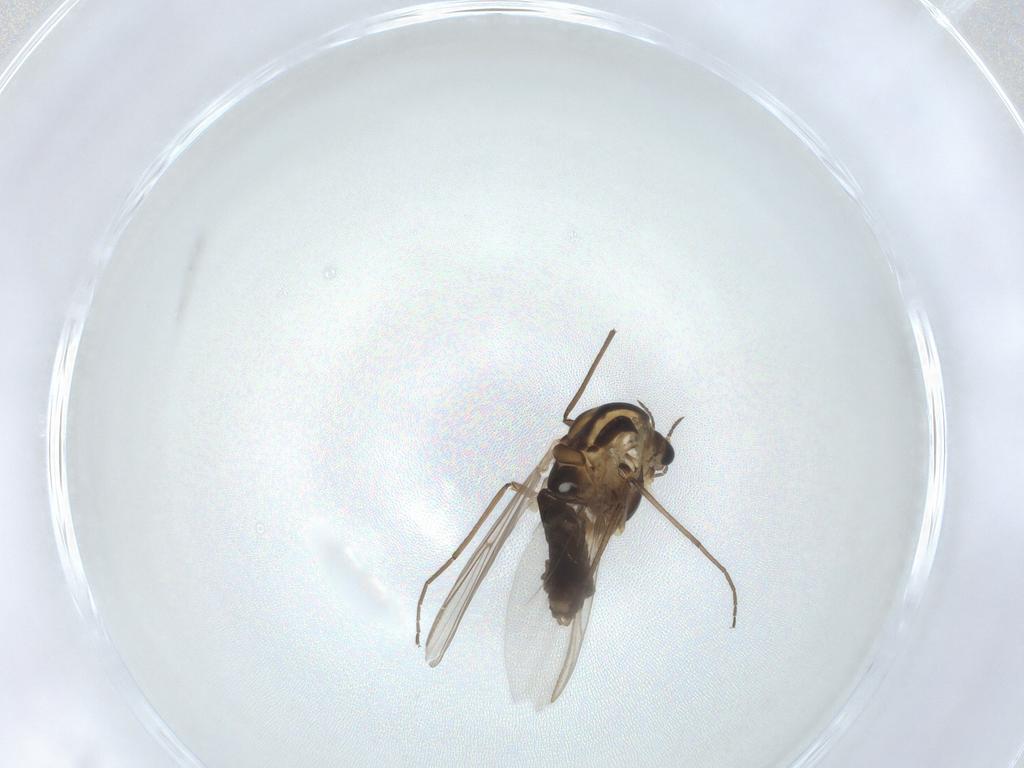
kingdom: Animalia
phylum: Arthropoda
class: Insecta
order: Diptera
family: Chironomidae
